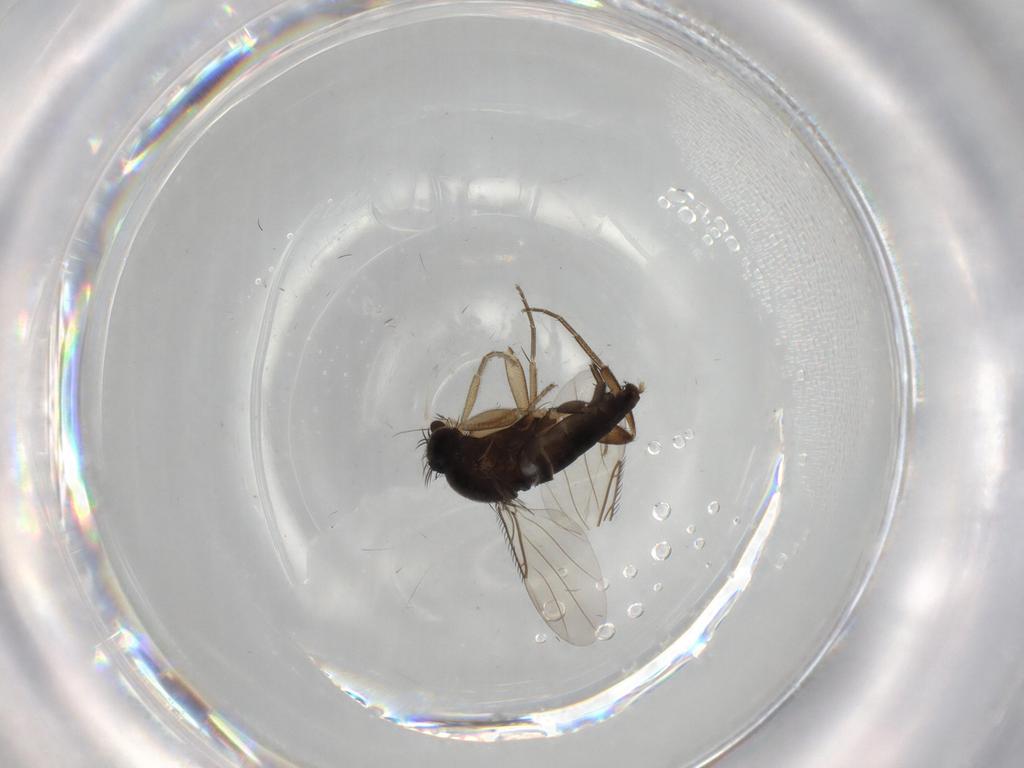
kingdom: Animalia
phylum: Arthropoda
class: Insecta
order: Diptera
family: Phoridae
